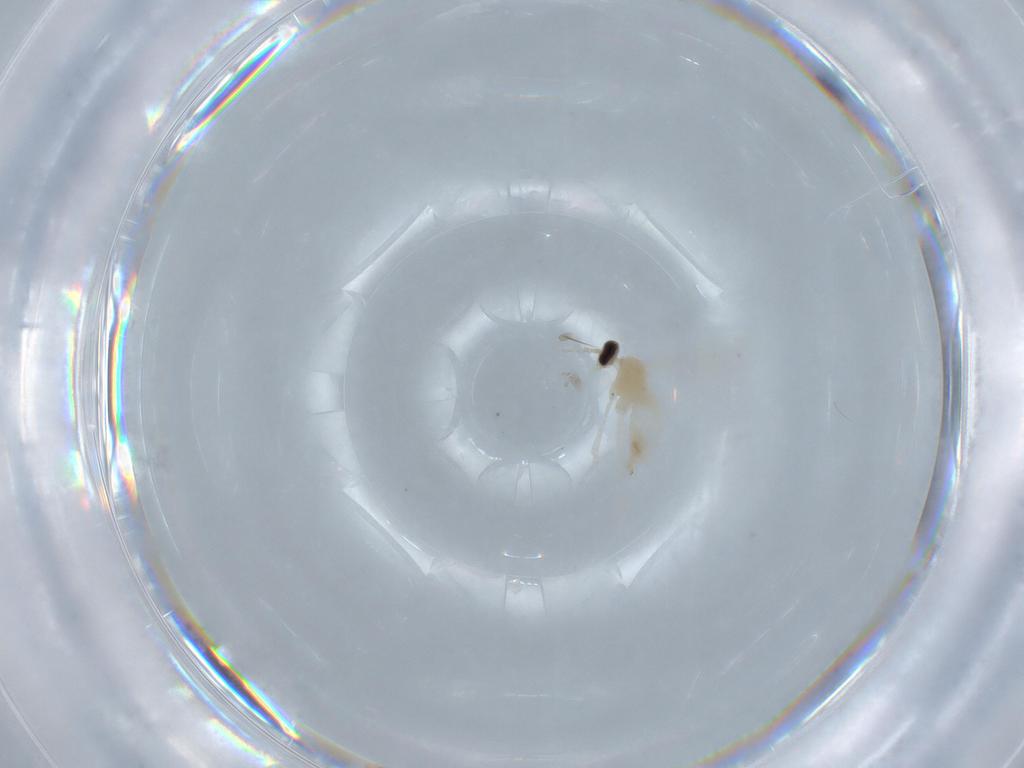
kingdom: Animalia
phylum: Arthropoda
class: Insecta
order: Diptera
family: Cecidomyiidae
